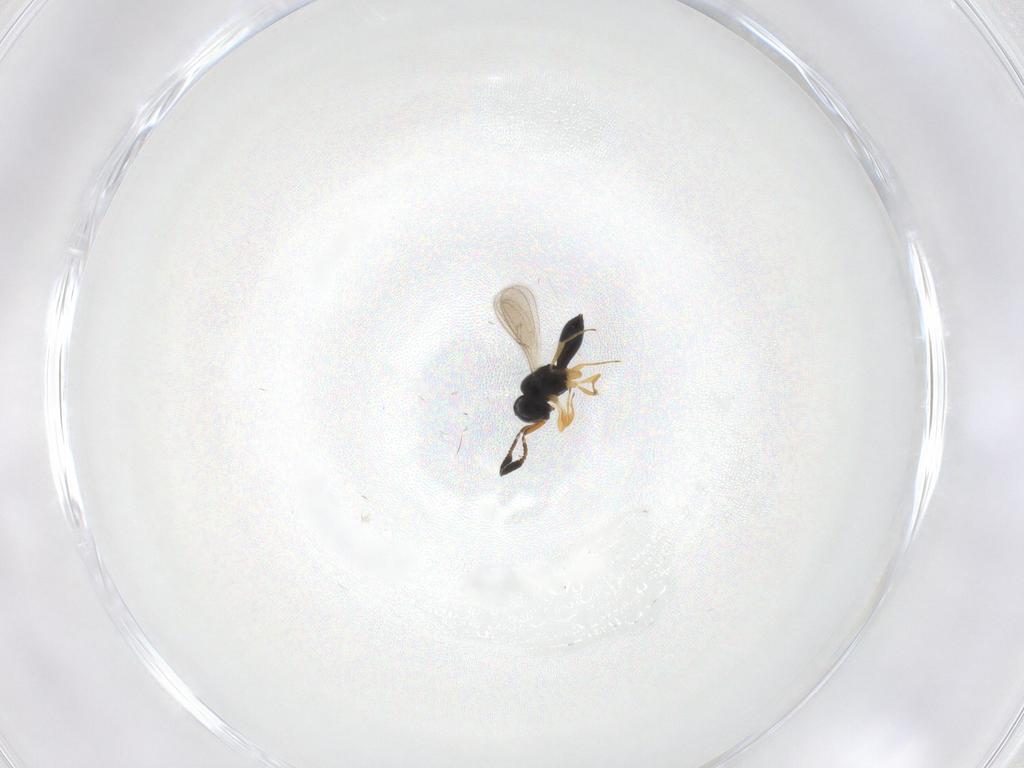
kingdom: Animalia
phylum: Arthropoda
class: Insecta
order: Hymenoptera
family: Scelionidae
